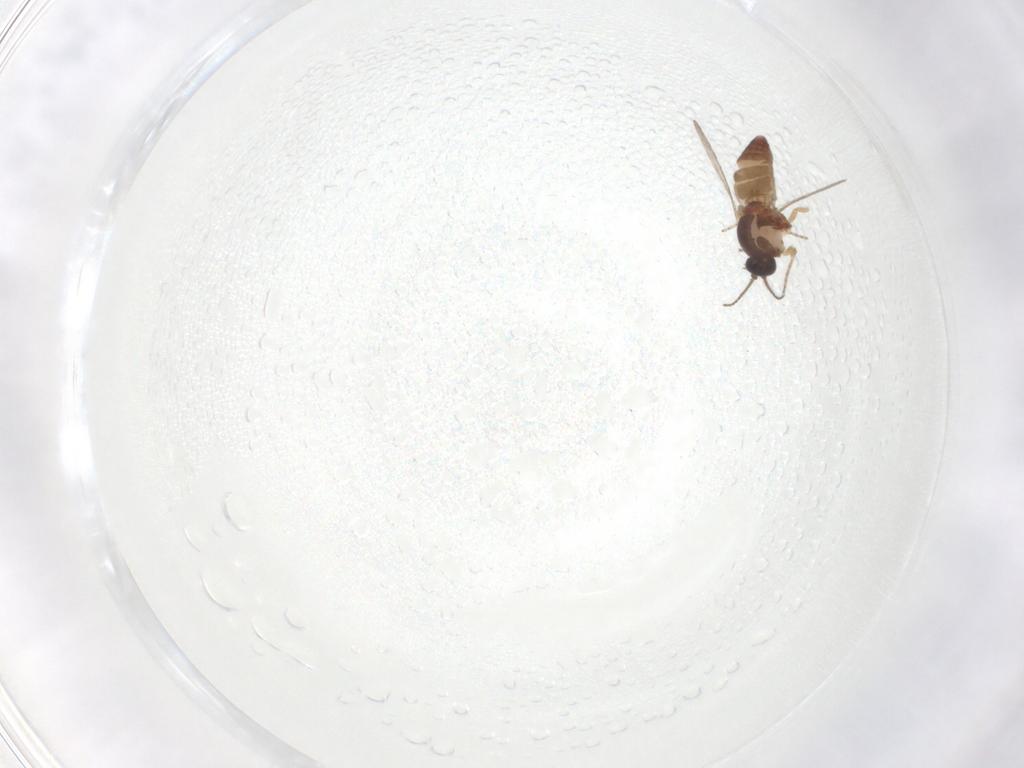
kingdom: Animalia
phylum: Arthropoda
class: Insecta
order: Diptera
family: Ceratopogonidae
